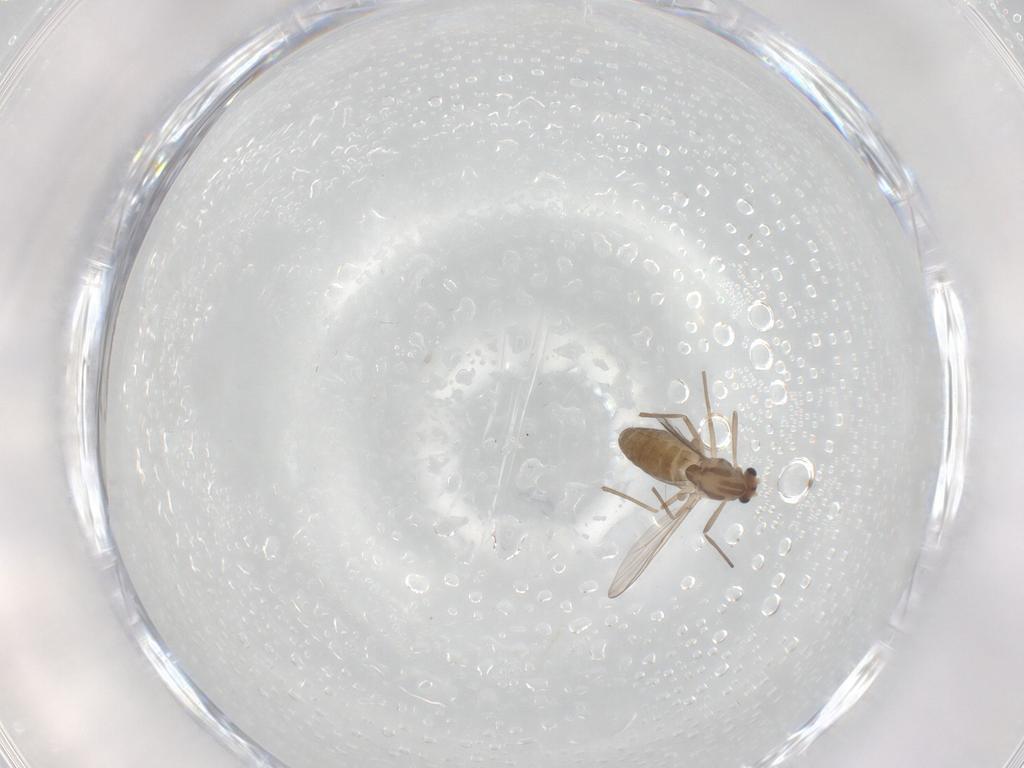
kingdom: Animalia
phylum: Arthropoda
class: Insecta
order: Diptera
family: Chironomidae
